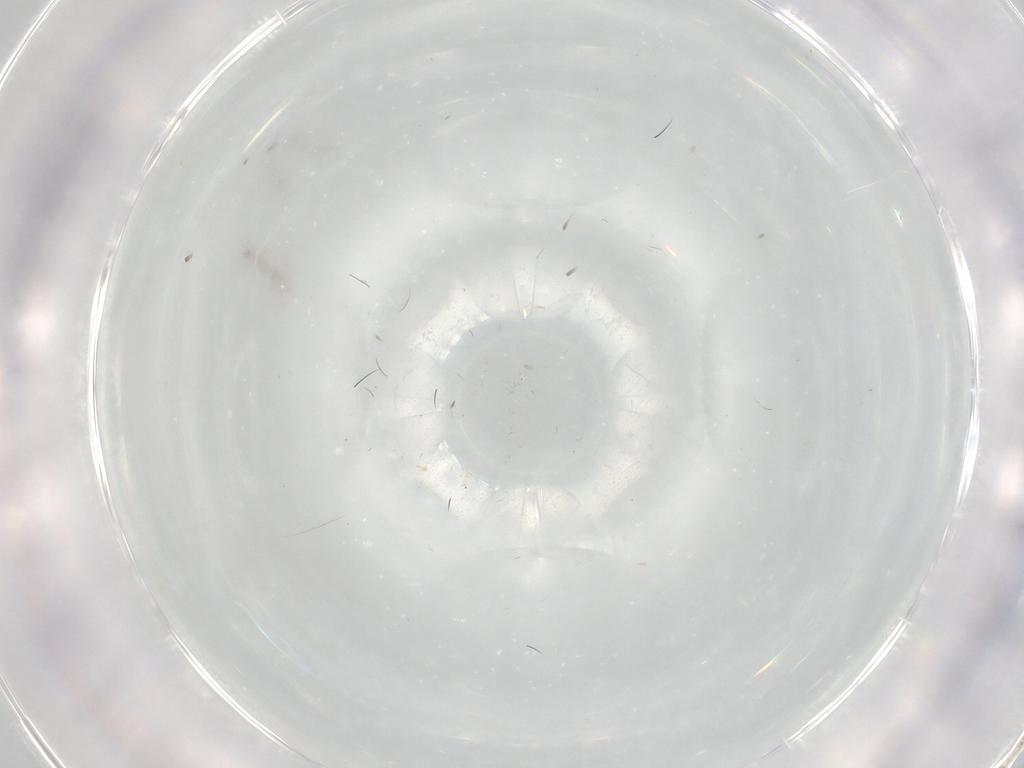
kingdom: Animalia
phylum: Arthropoda
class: Insecta
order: Diptera
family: Cecidomyiidae
